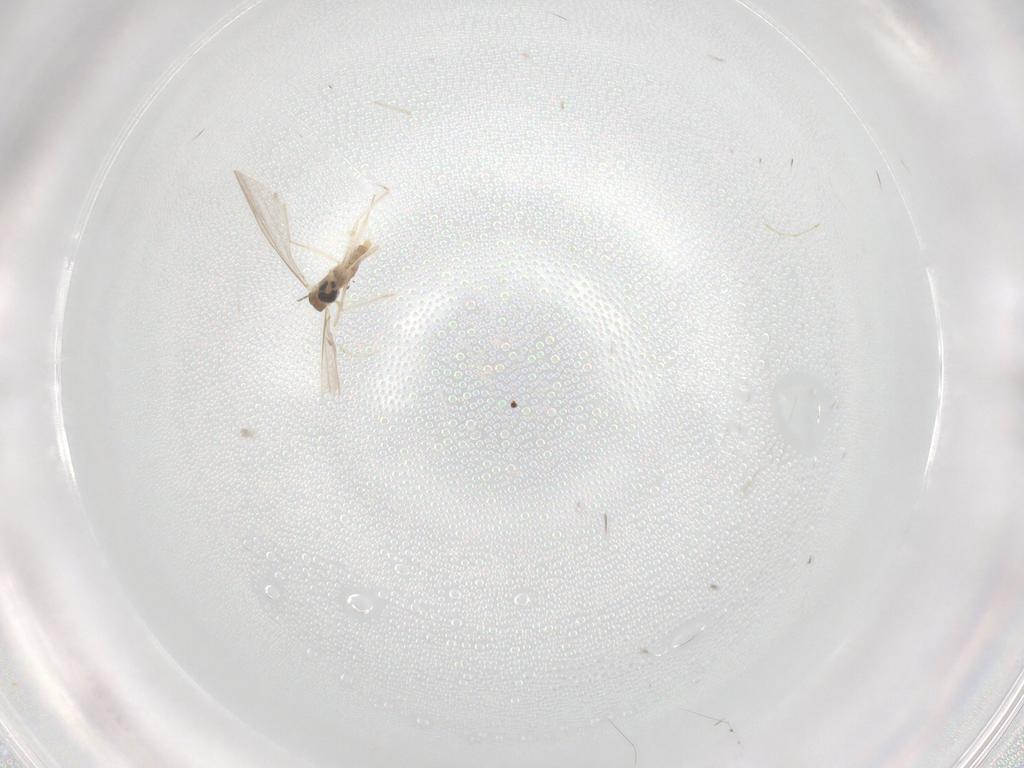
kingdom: Animalia
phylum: Arthropoda
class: Insecta
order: Diptera
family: Cecidomyiidae
